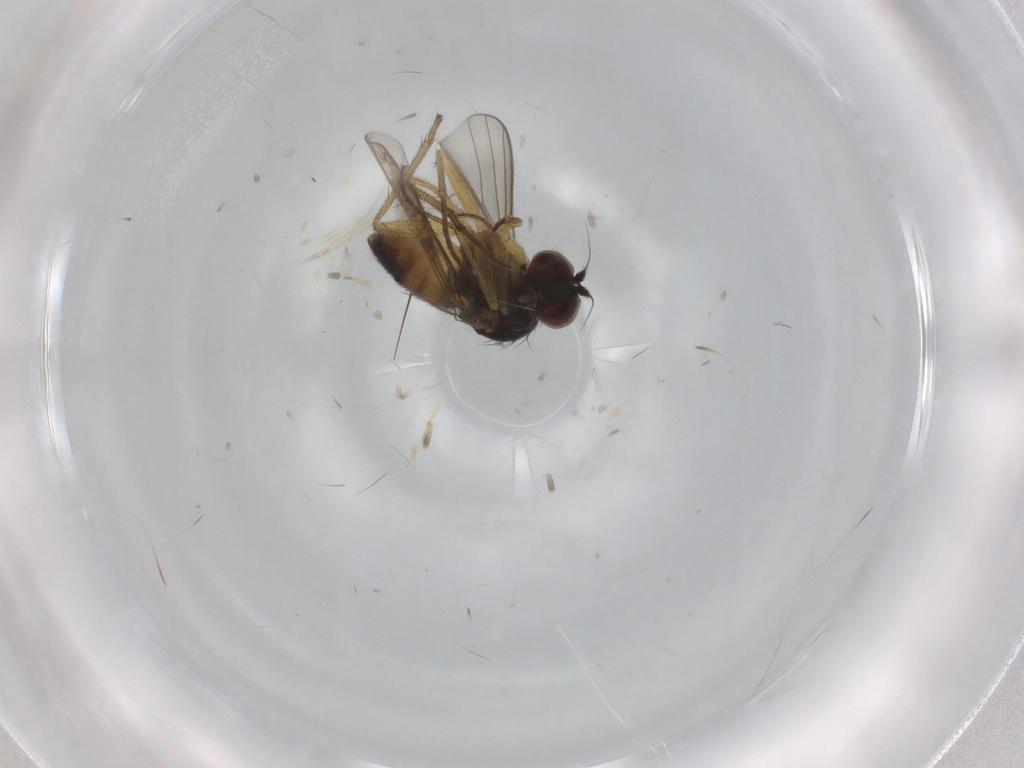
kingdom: Animalia
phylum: Arthropoda
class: Insecta
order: Diptera
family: Dolichopodidae
